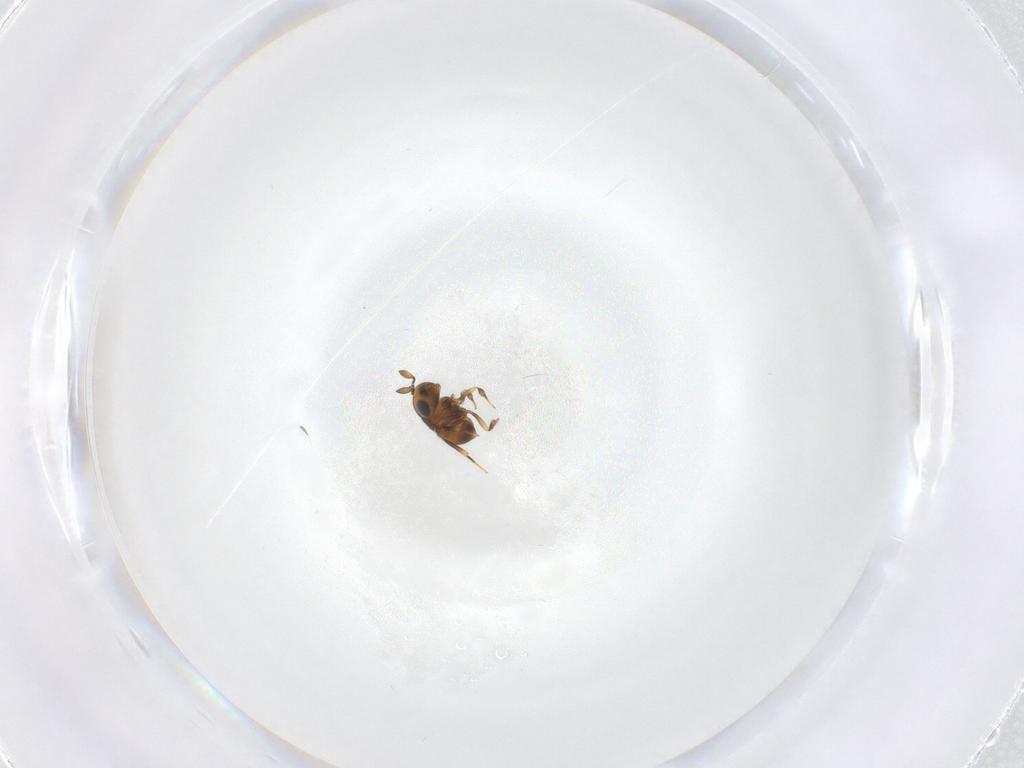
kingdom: Animalia
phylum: Arthropoda
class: Insecta
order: Hymenoptera
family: Scelionidae
